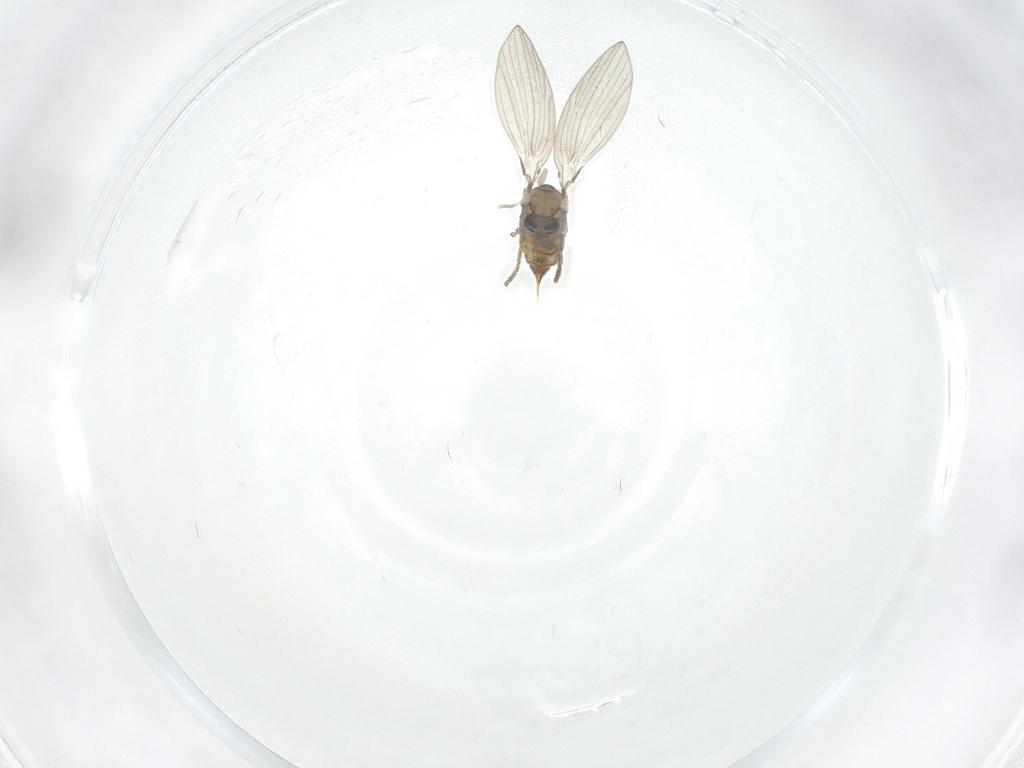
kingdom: Animalia
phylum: Arthropoda
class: Insecta
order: Diptera
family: Psychodidae
